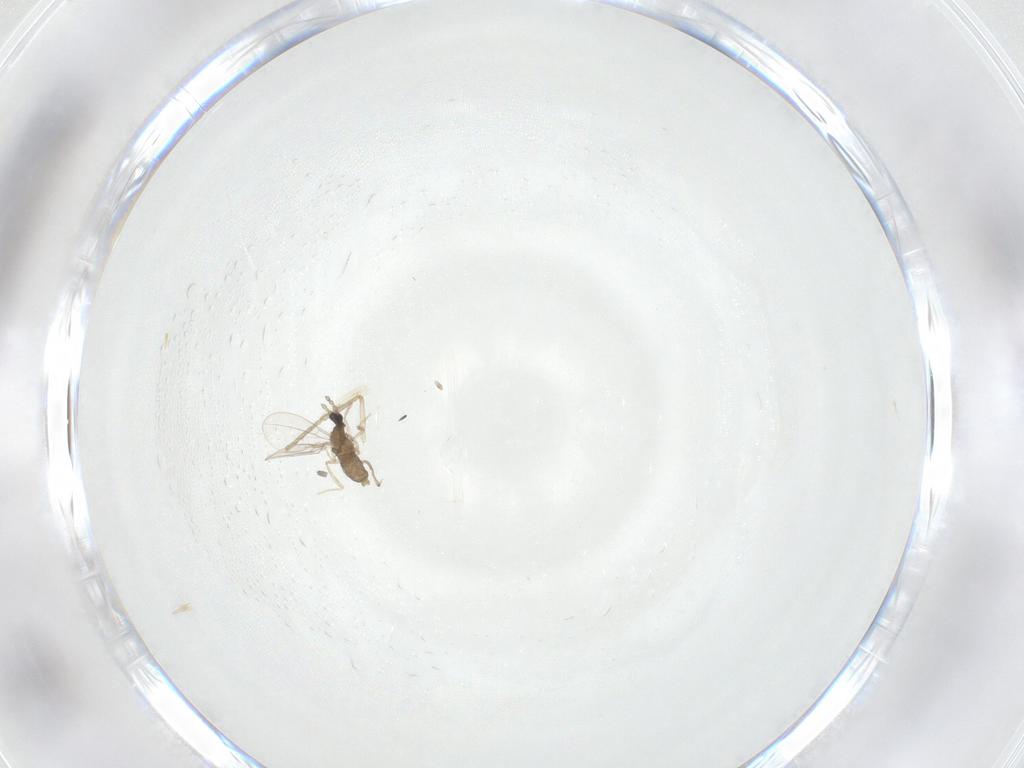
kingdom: Animalia
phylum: Arthropoda
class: Insecta
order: Diptera
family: Cecidomyiidae
